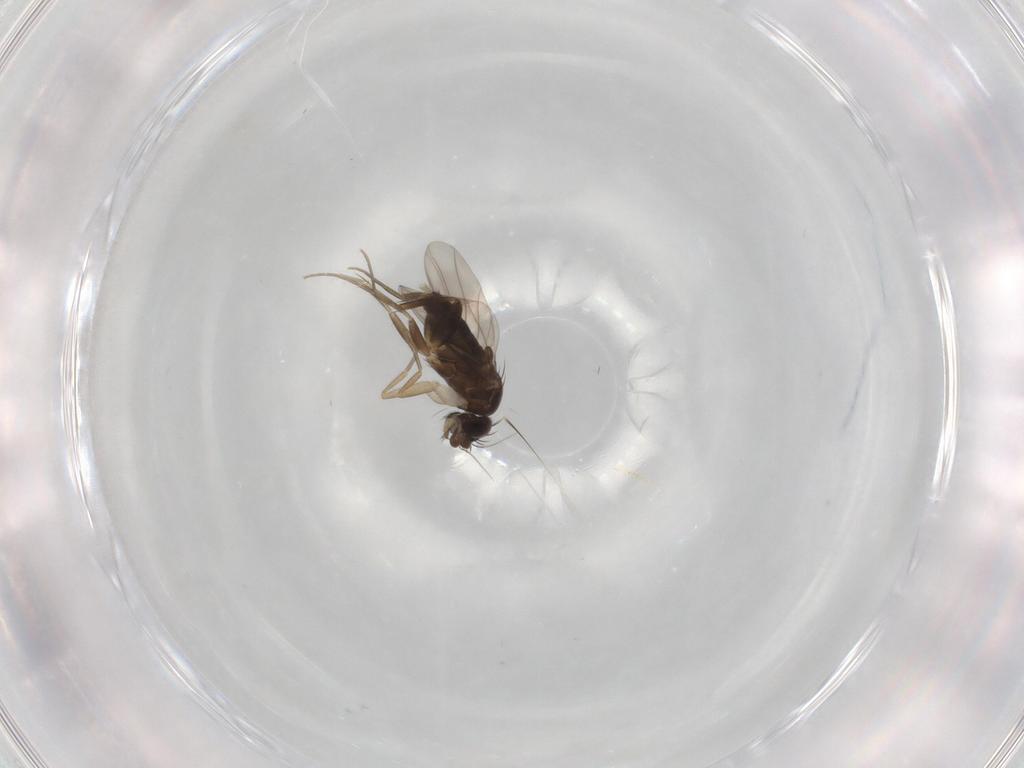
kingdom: Animalia
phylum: Arthropoda
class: Insecta
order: Diptera
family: Phoridae
